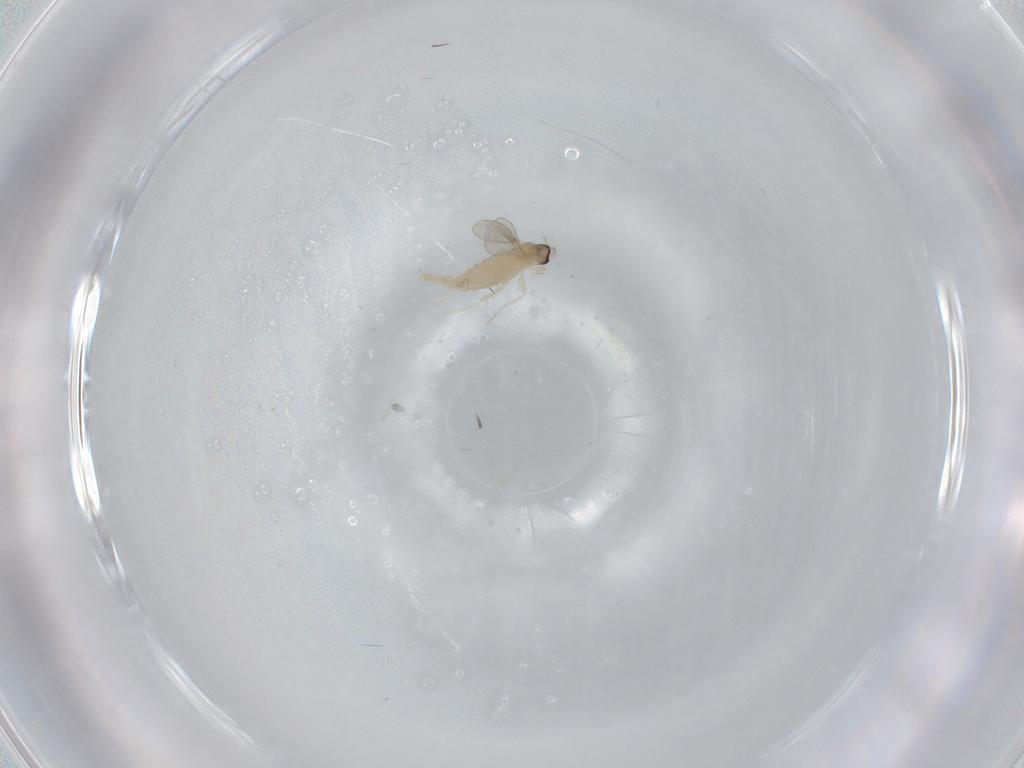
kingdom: Animalia
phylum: Arthropoda
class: Insecta
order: Diptera
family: Cecidomyiidae
